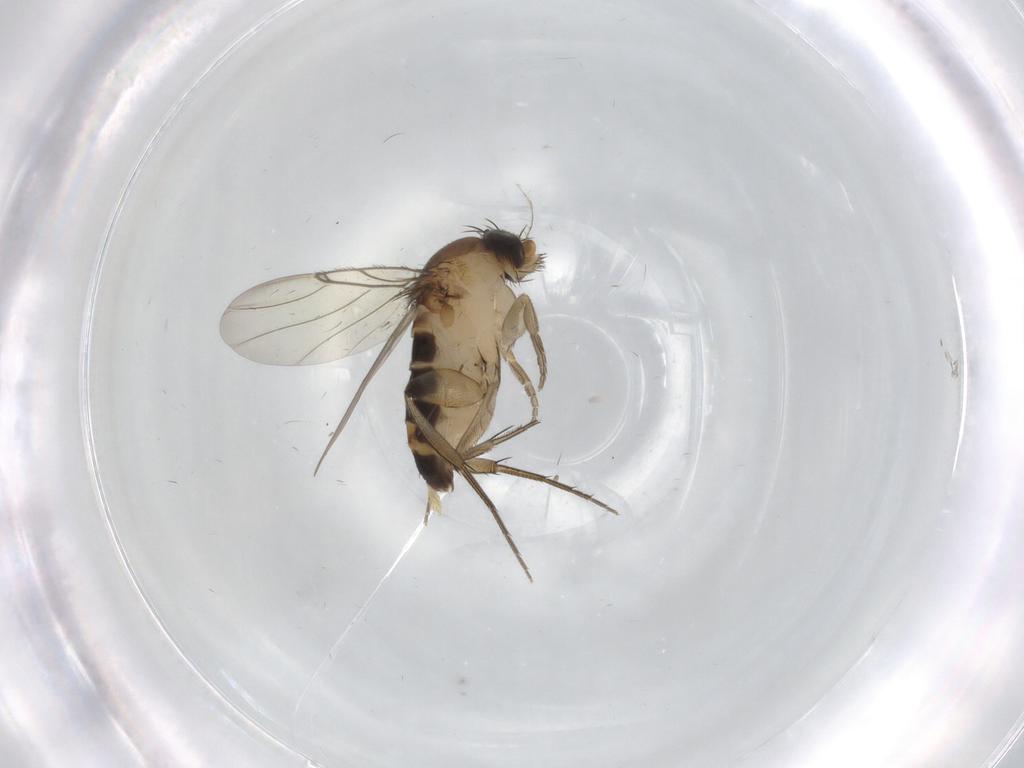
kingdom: Animalia
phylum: Arthropoda
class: Insecta
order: Diptera
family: Phoridae
